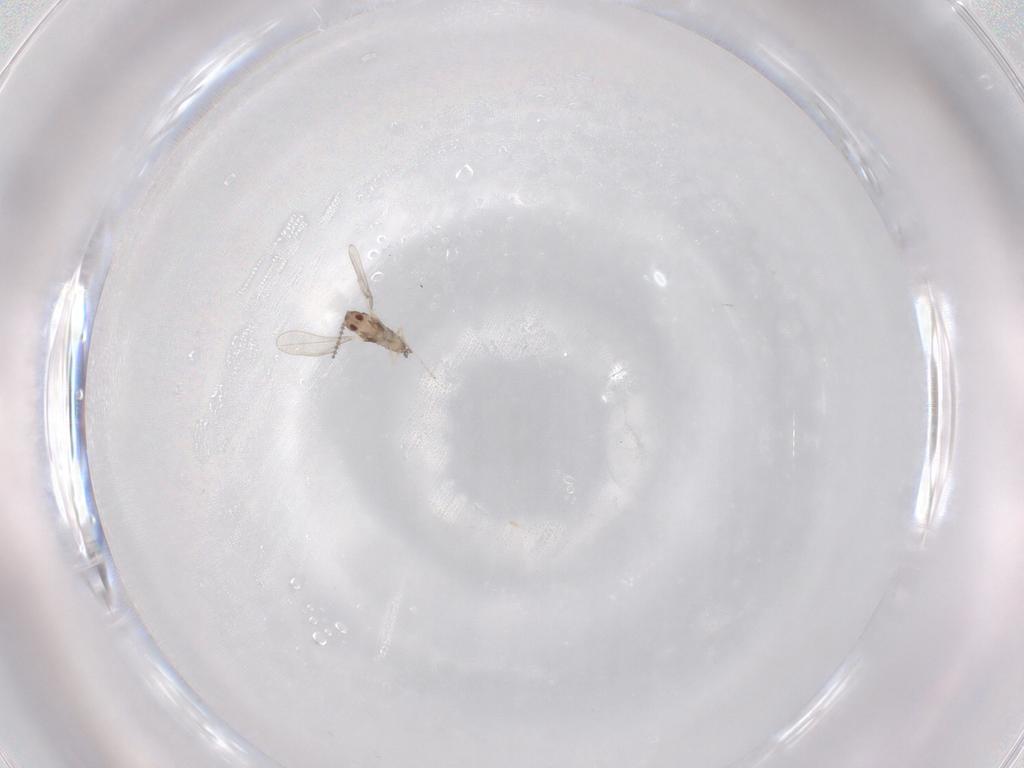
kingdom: Animalia
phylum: Arthropoda
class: Insecta
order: Diptera
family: Cecidomyiidae
